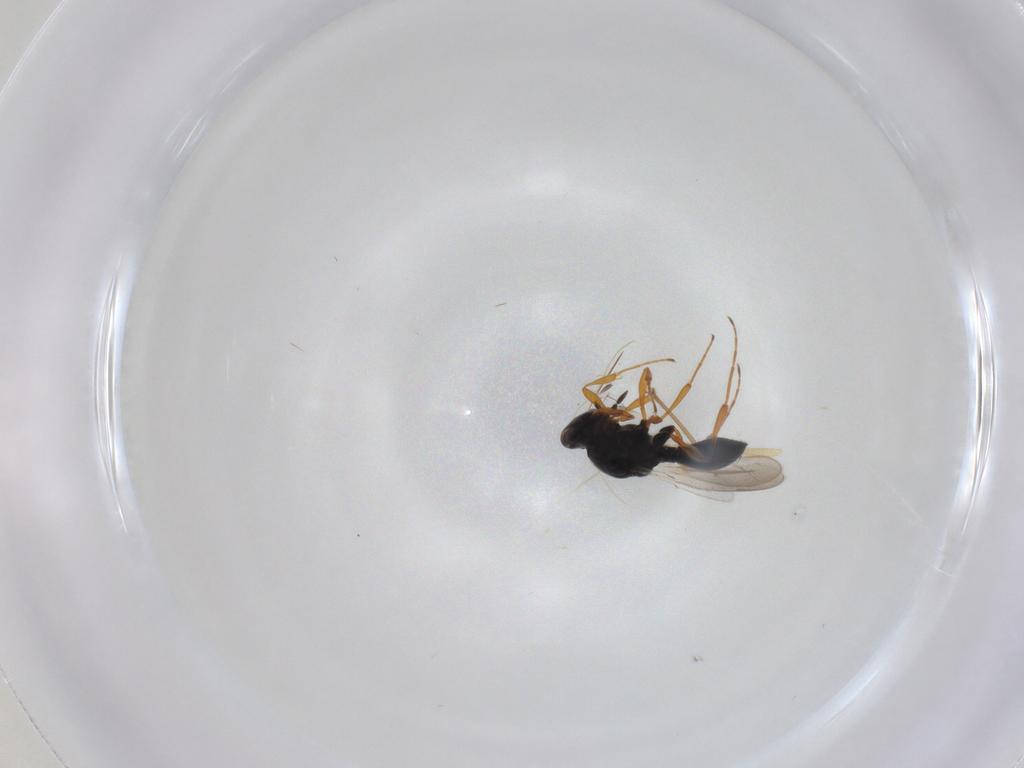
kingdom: Animalia
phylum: Arthropoda
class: Insecta
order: Hymenoptera
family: Platygastridae
